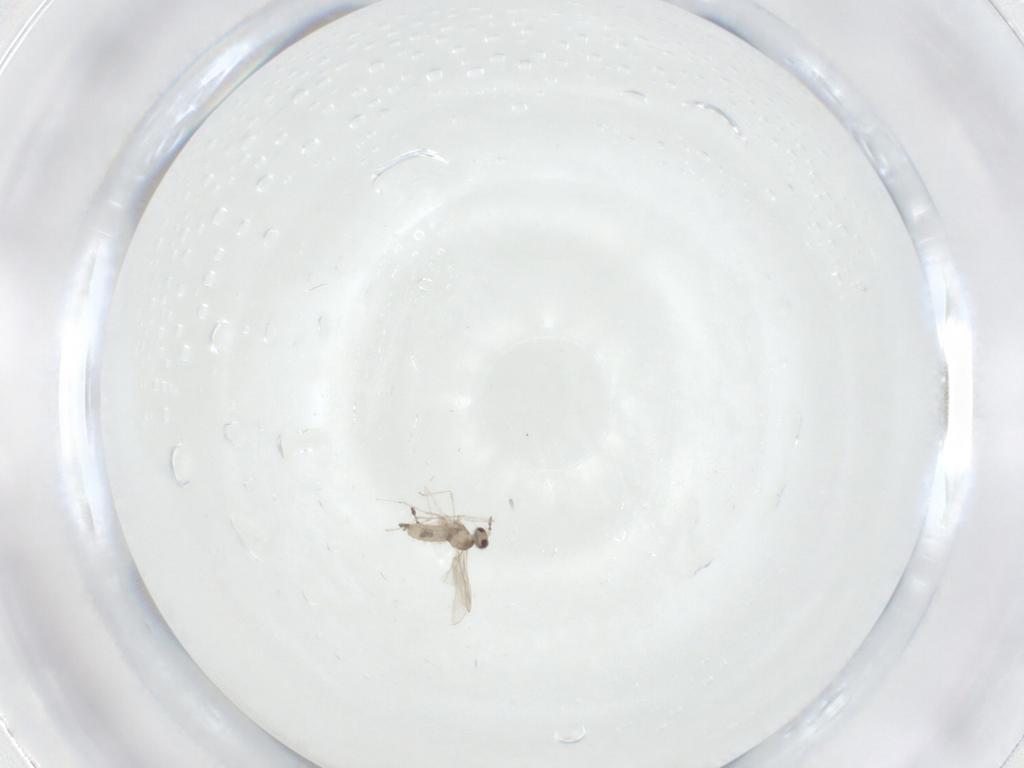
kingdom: Animalia
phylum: Arthropoda
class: Insecta
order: Diptera
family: Cecidomyiidae
